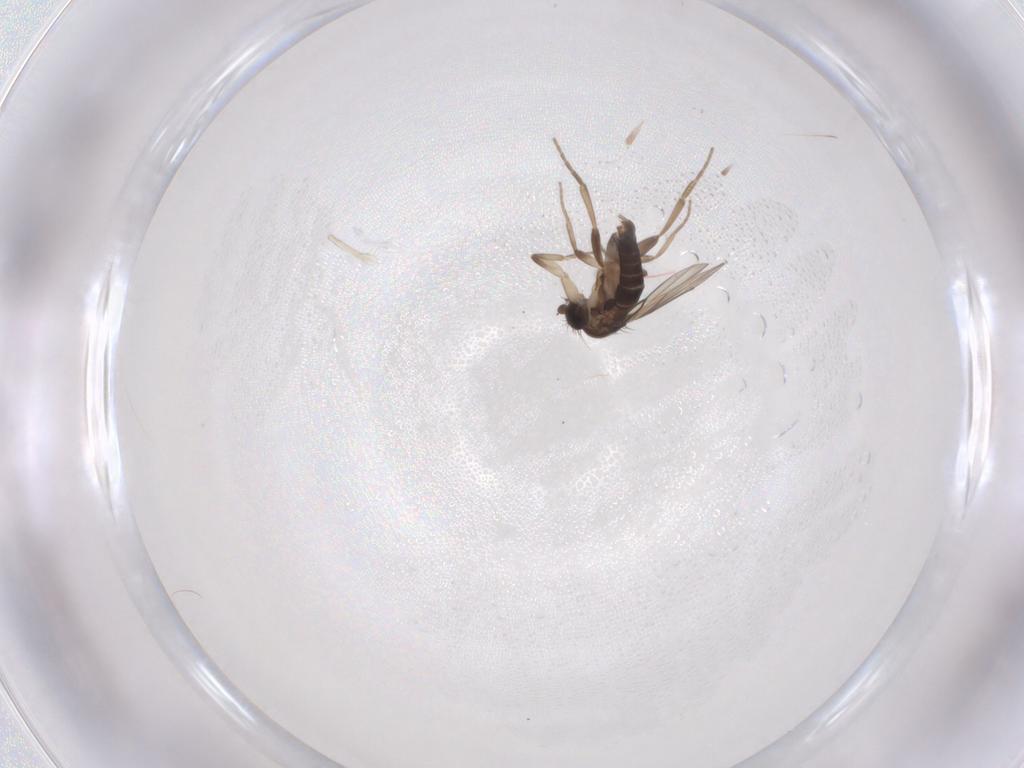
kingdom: Animalia
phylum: Arthropoda
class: Insecta
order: Diptera
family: Phoridae
